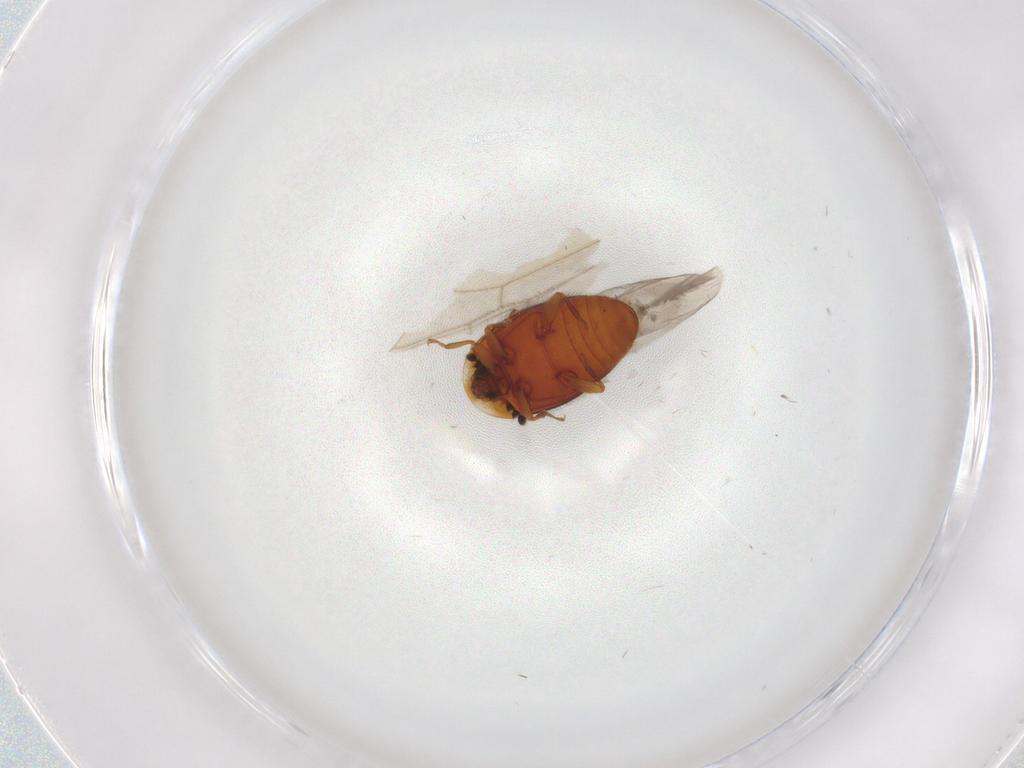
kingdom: Animalia
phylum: Arthropoda
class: Insecta
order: Coleoptera
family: Corylophidae
